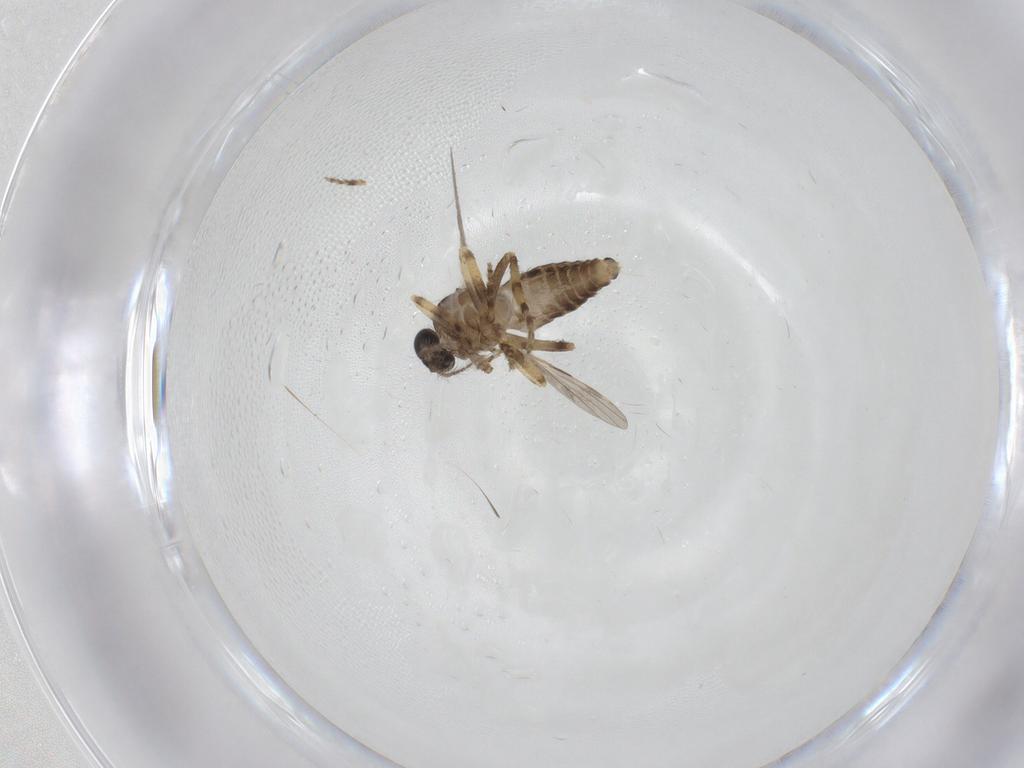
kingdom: Animalia
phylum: Arthropoda
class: Insecta
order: Diptera
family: Ceratopogonidae
